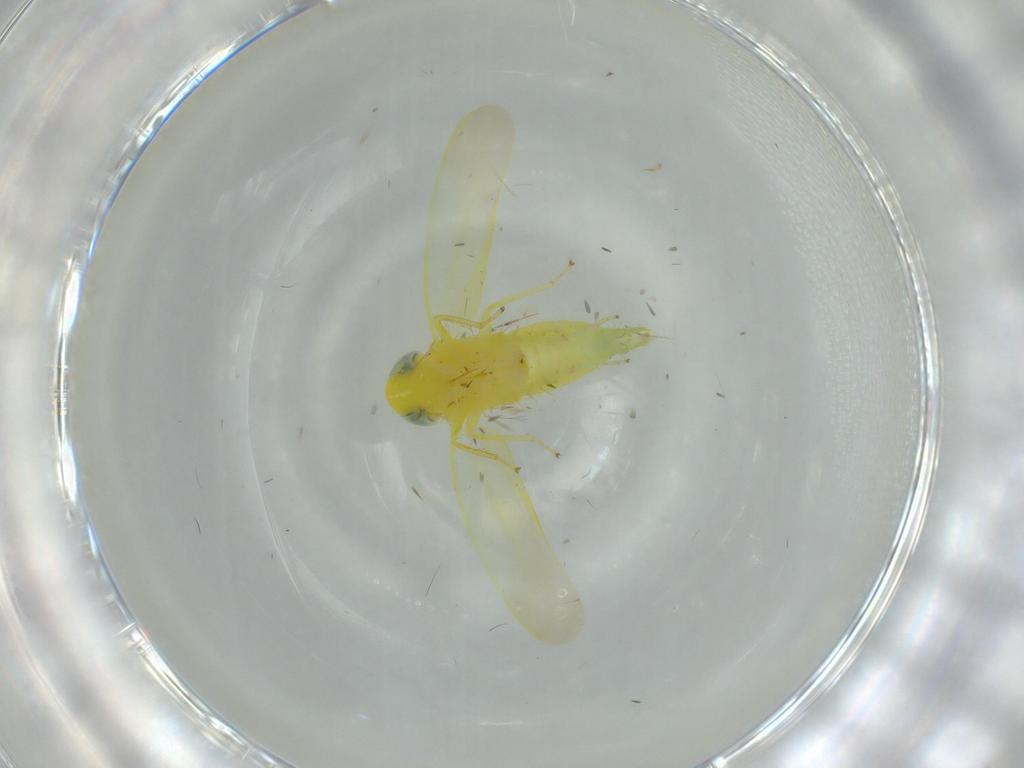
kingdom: Animalia
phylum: Arthropoda
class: Insecta
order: Hemiptera
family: Cicadellidae
